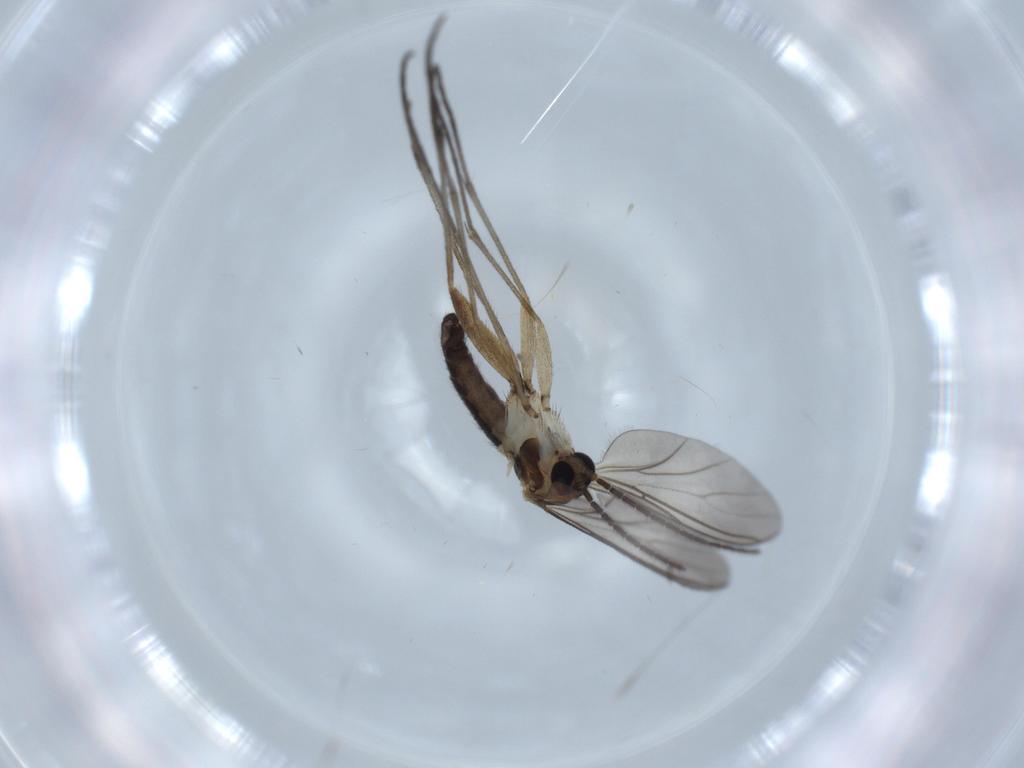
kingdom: Animalia
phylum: Arthropoda
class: Insecta
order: Diptera
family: Sciaridae
